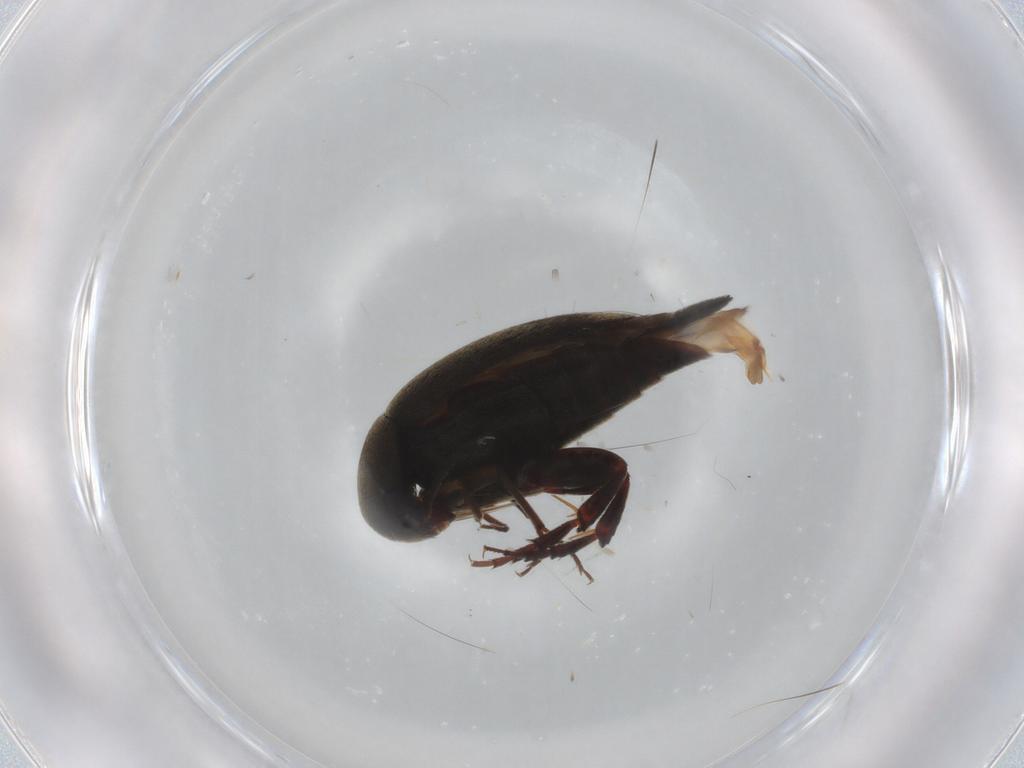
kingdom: Animalia
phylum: Arthropoda
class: Insecta
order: Coleoptera
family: Mordellidae
